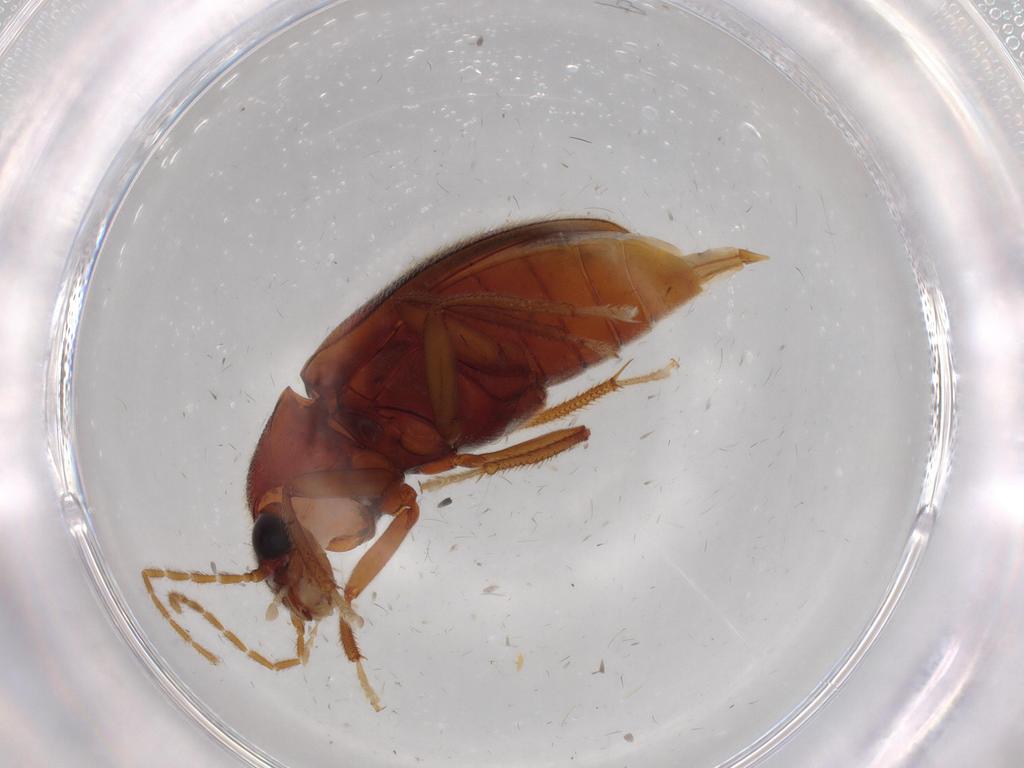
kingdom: Animalia
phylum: Arthropoda
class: Insecta
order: Coleoptera
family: Ptilodactylidae
